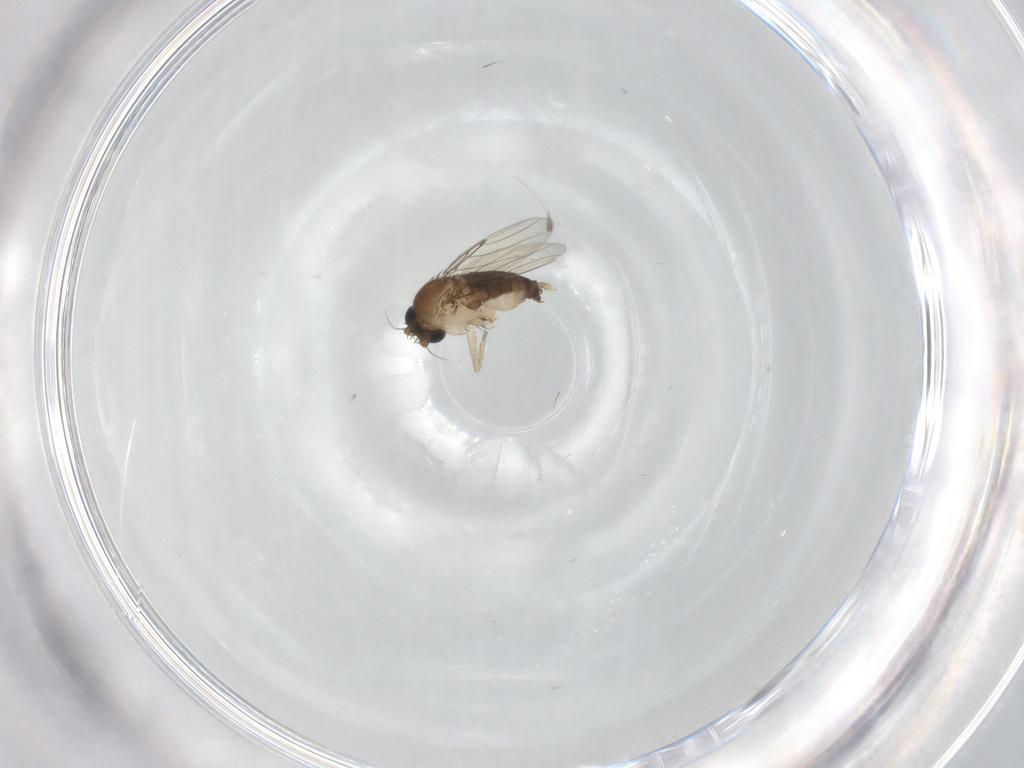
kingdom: Animalia
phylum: Arthropoda
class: Insecta
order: Diptera
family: Phoridae
